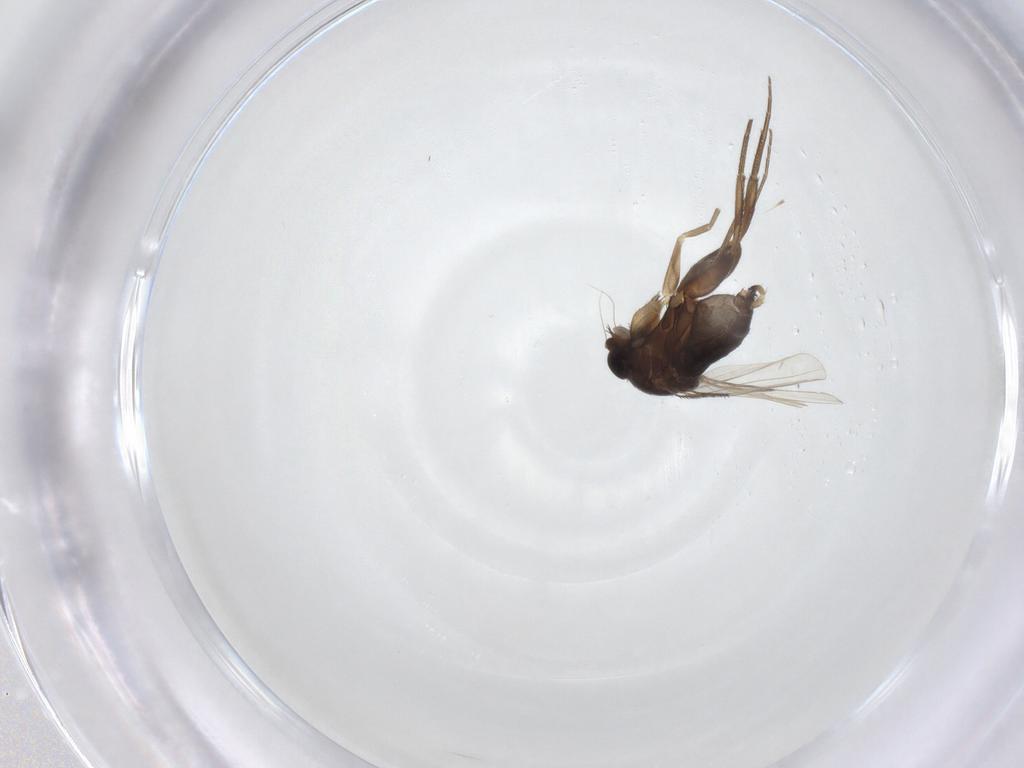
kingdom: Animalia
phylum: Arthropoda
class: Insecta
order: Diptera
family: Phoridae
